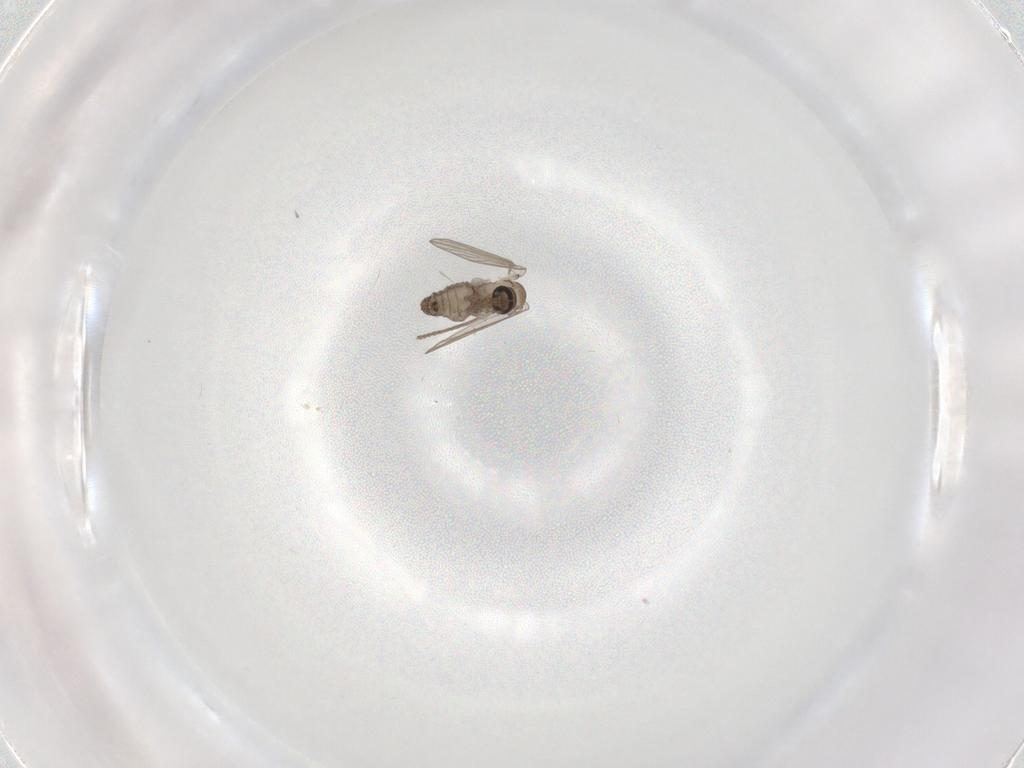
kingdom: Animalia
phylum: Arthropoda
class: Insecta
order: Diptera
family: Psychodidae
